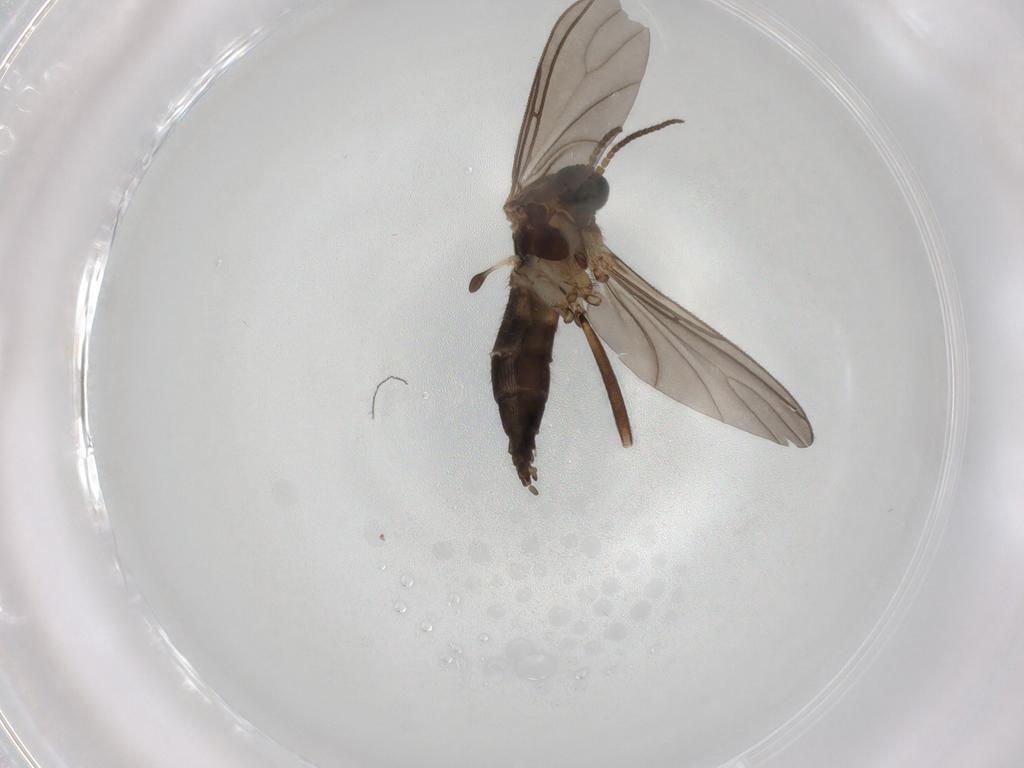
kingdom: Animalia
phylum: Arthropoda
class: Insecta
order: Diptera
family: Sciaridae
